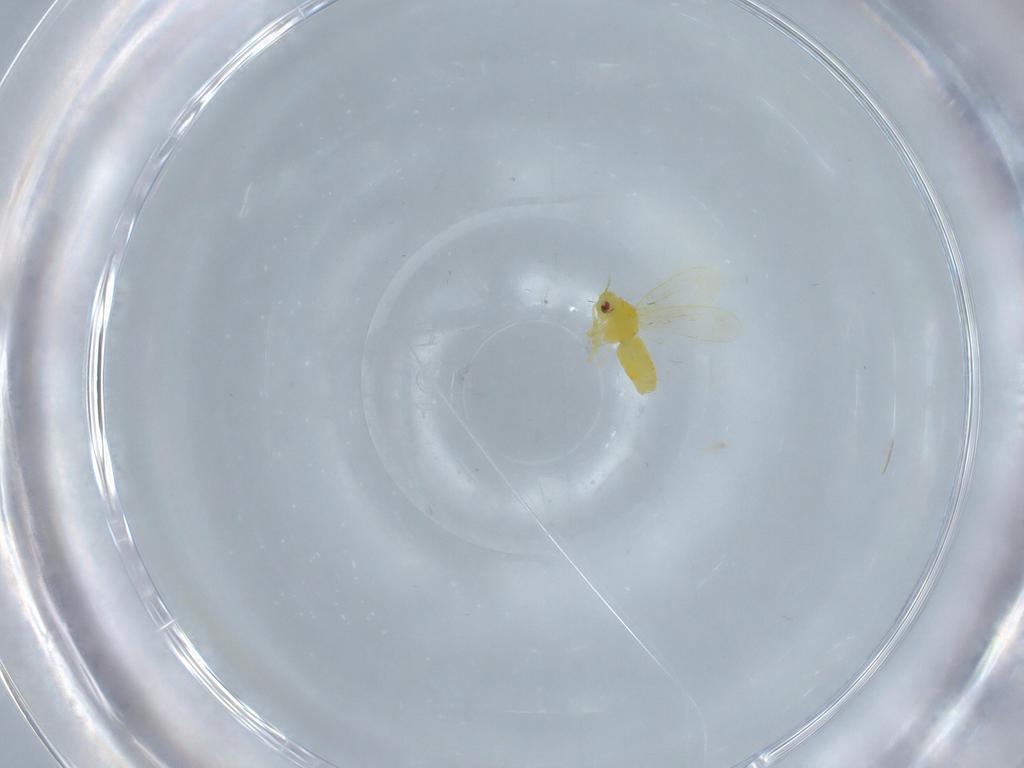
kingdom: Animalia
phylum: Arthropoda
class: Insecta
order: Hemiptera
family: Aleyrodidae
